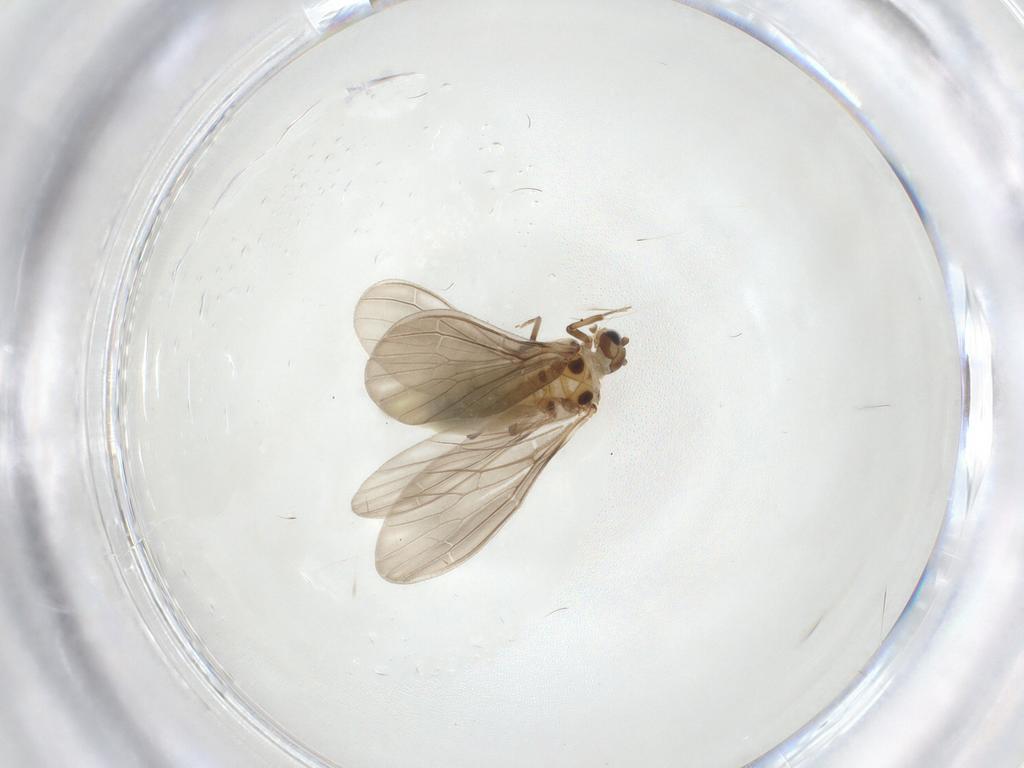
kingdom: Animalia
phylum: Arthropoda
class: Insecta
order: Neuroptera
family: Coniopterygidae
